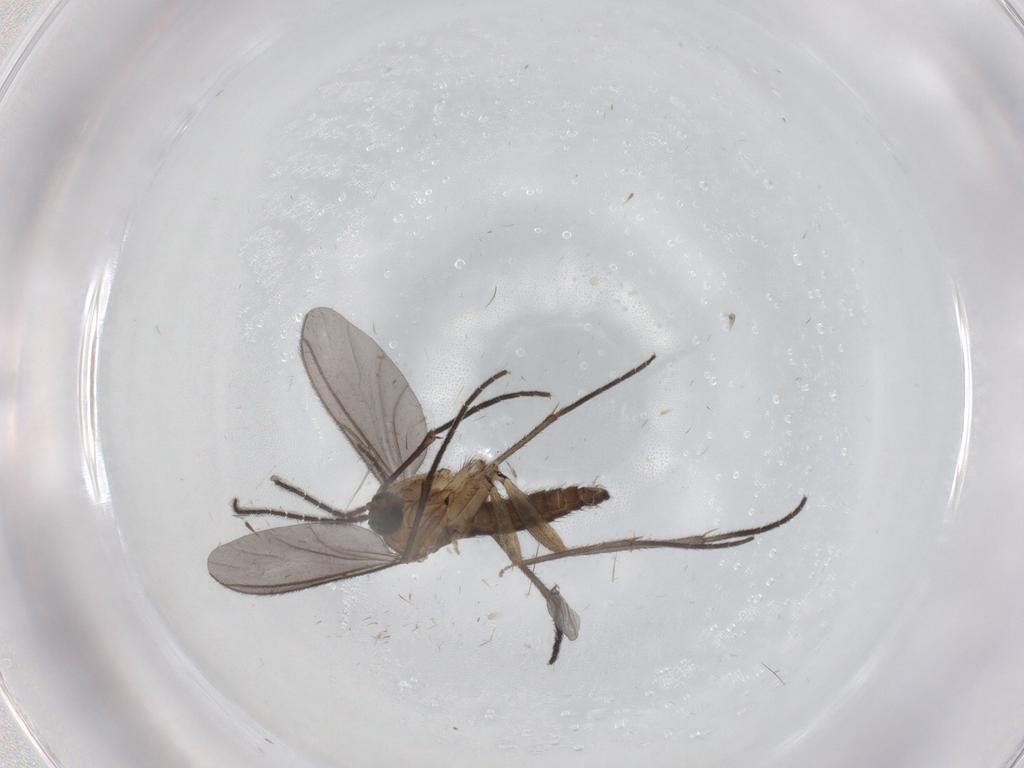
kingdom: Animalia
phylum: Arthropoda
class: Insecta
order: Diptera
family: Sciaridae
